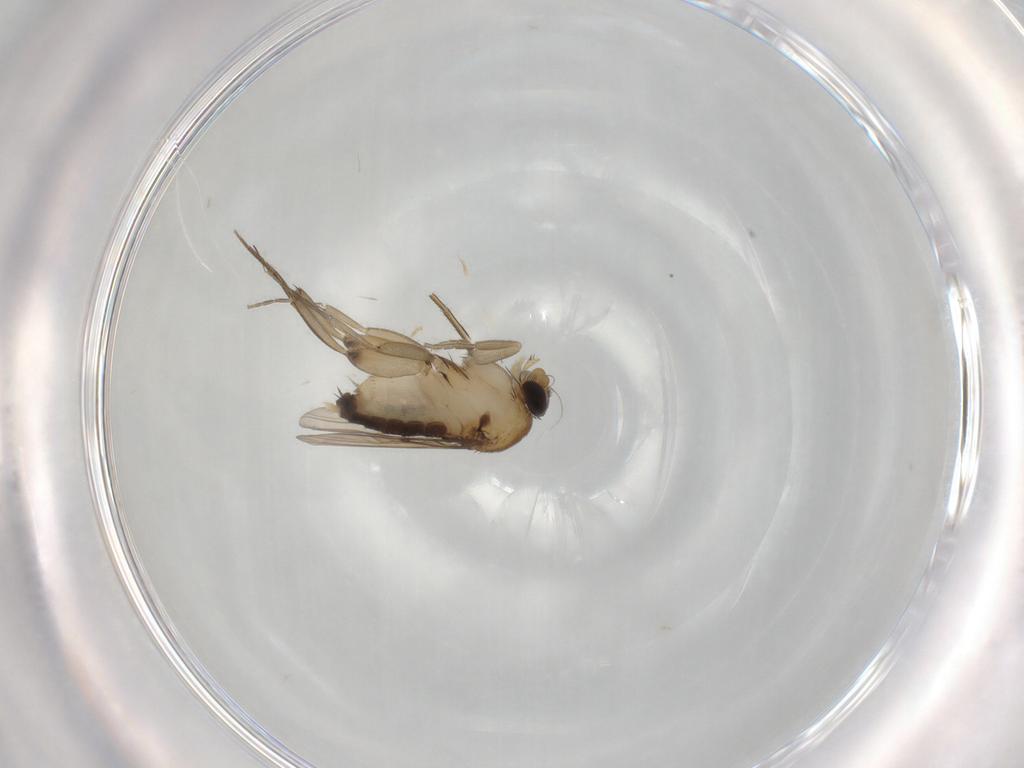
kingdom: Animalia
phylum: Arthropoda
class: Insecta
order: Diptera
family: Phoridae
